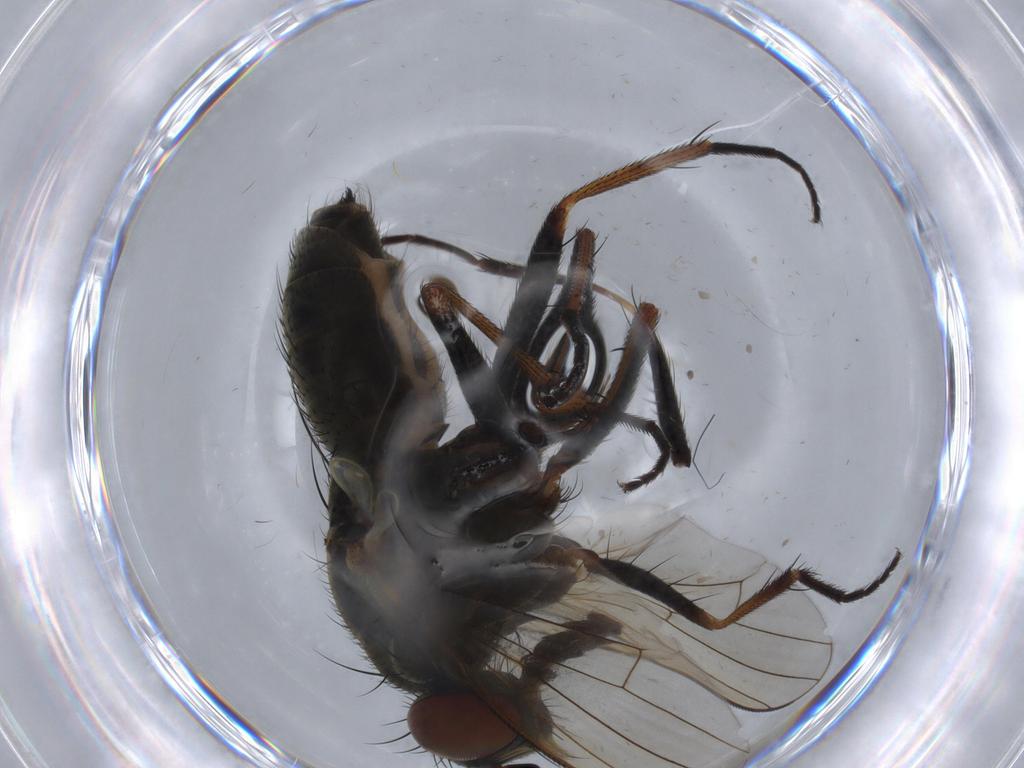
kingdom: Animalia
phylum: Arthropoda
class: Insecta
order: Diptera
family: Muscidae
